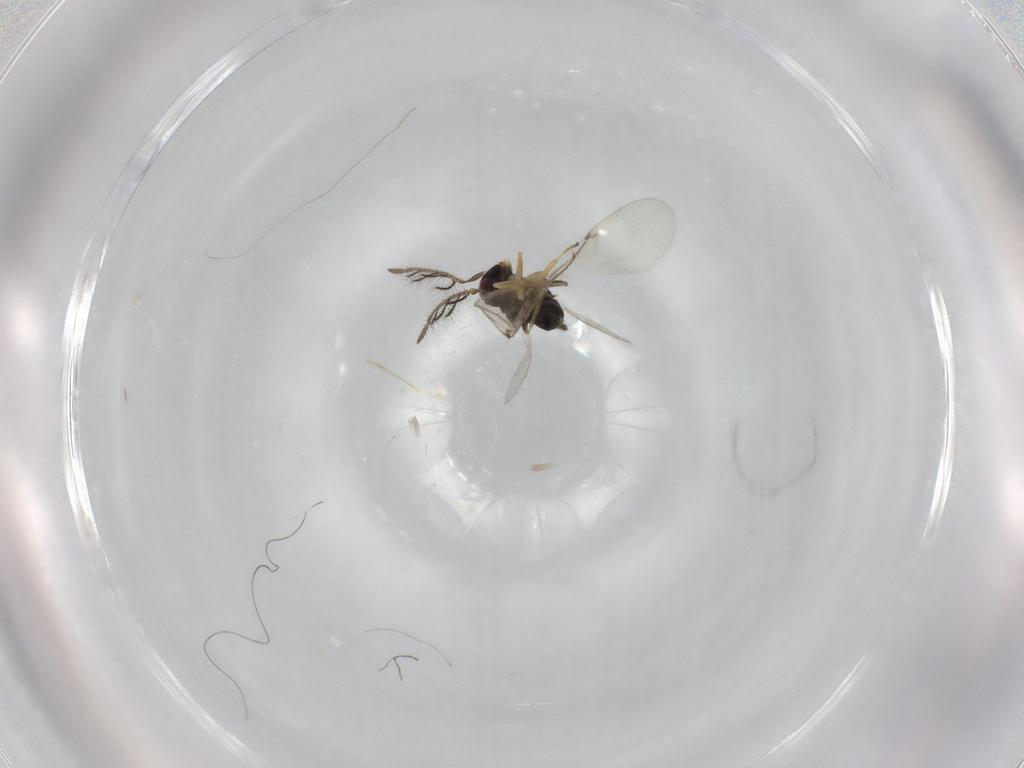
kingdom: Animalia
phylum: Arthropoda
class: Insecta
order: Hymenoptera
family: Encyrtidae
